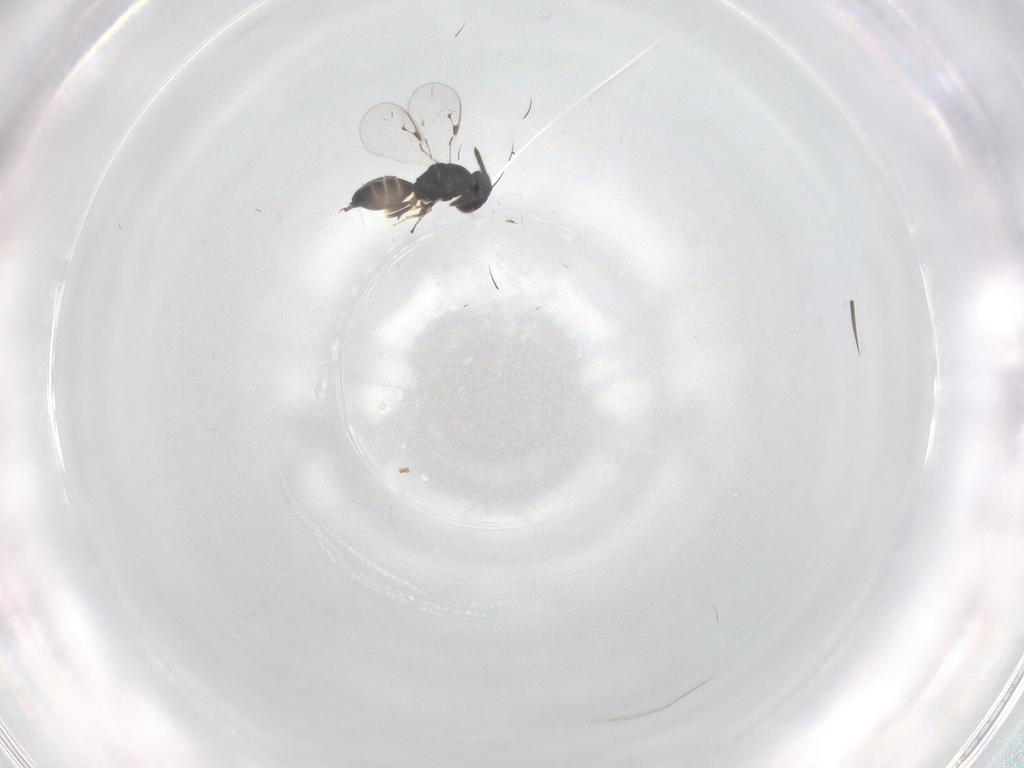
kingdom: Animalia
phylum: Arthropoda
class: Insecta
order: Hymenoptera
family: Pteromalidae
